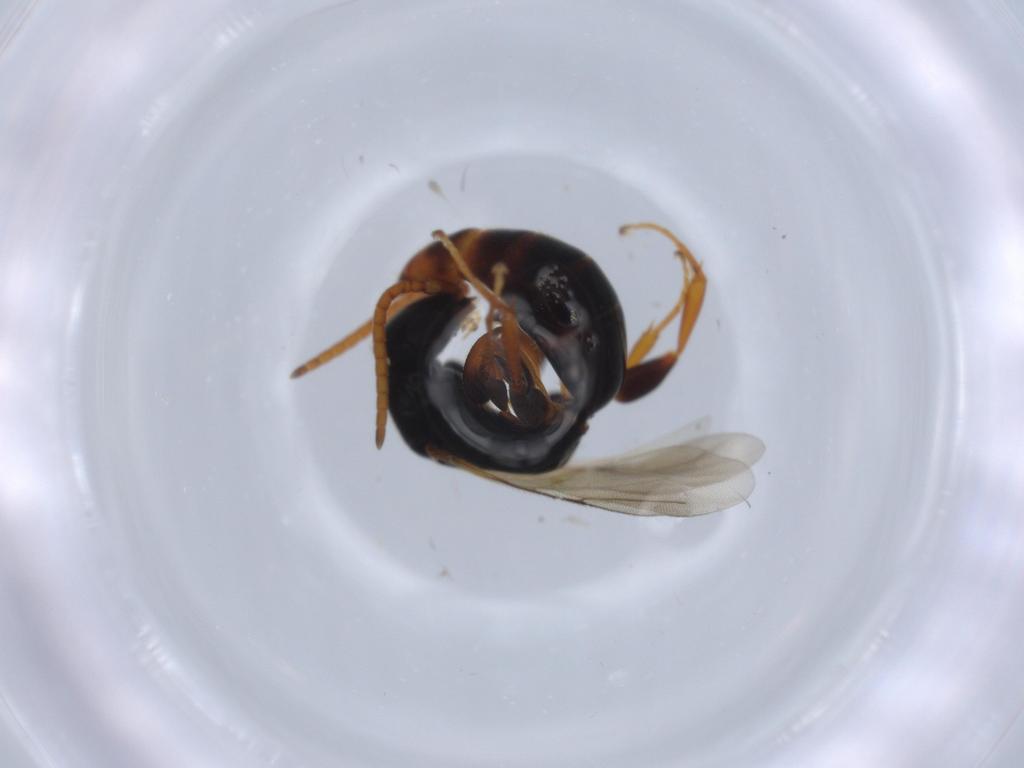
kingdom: Animalia
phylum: Arthropoda
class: Insecta
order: Hymenoptera
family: Bethylidae
